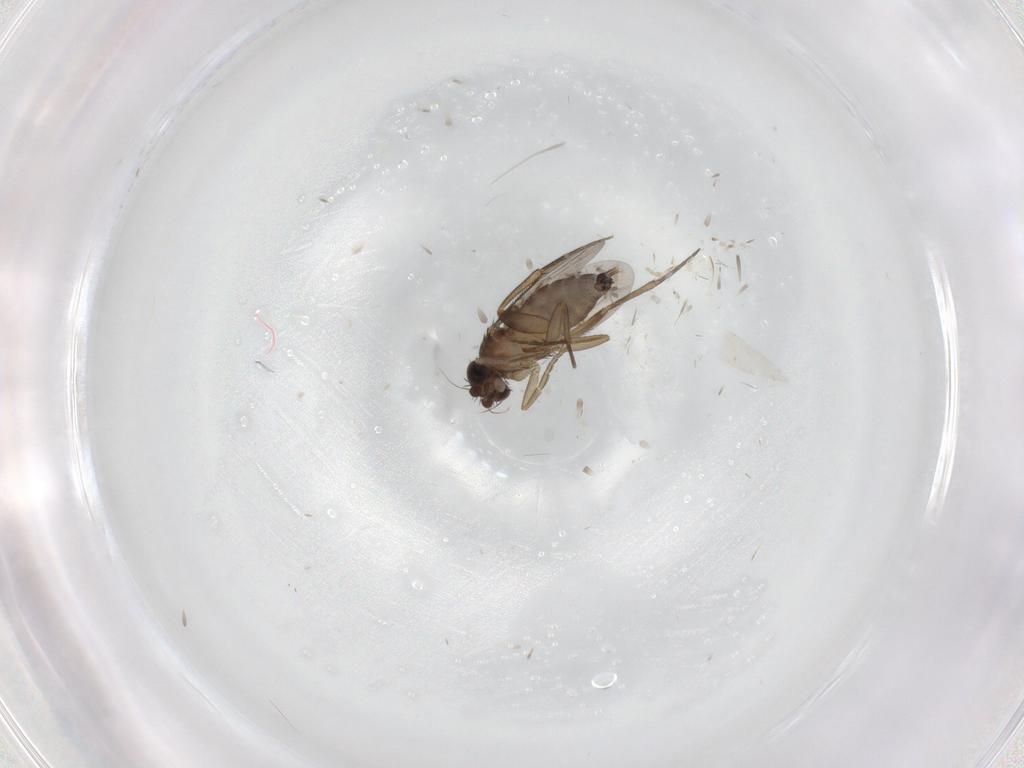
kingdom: Animalia
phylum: Arthropoda
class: Insecta
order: Diptera
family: Phoridae
